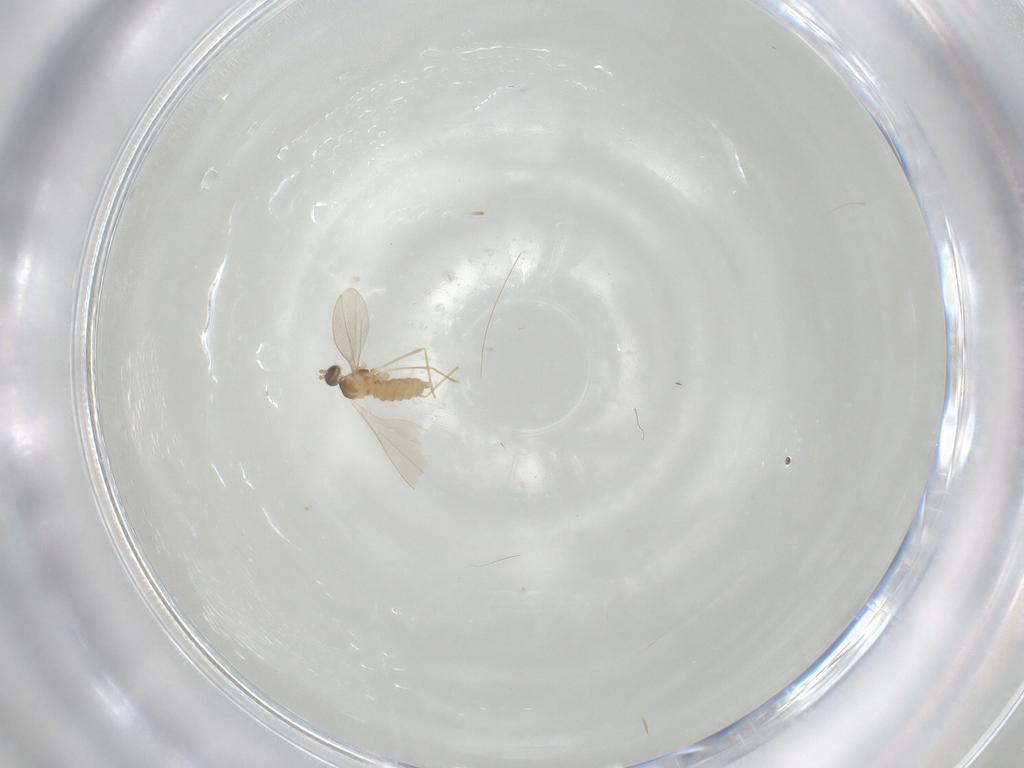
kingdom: Animalia
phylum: Arthropoda
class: Insecta
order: Diptera
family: Cecidomyiidae
